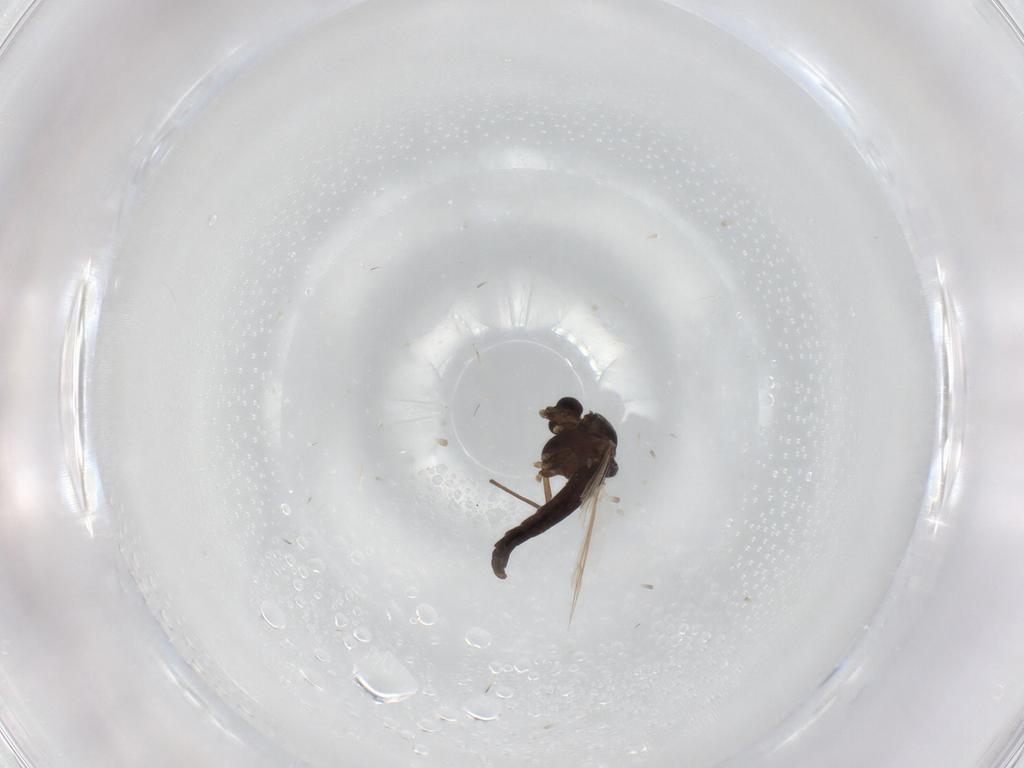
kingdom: Animalia
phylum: Arthropoda
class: Insecta
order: Diptera
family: Chironomidae
